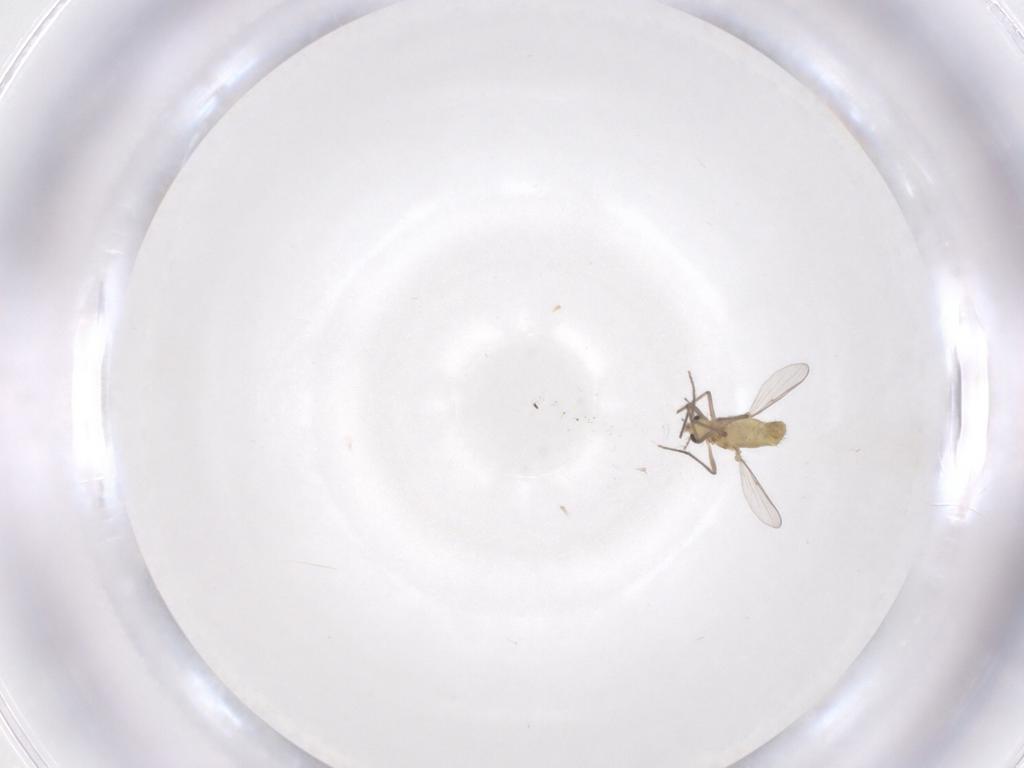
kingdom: Animalia
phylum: Arthropoda
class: Insecta
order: Diptera
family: Chironomidae
